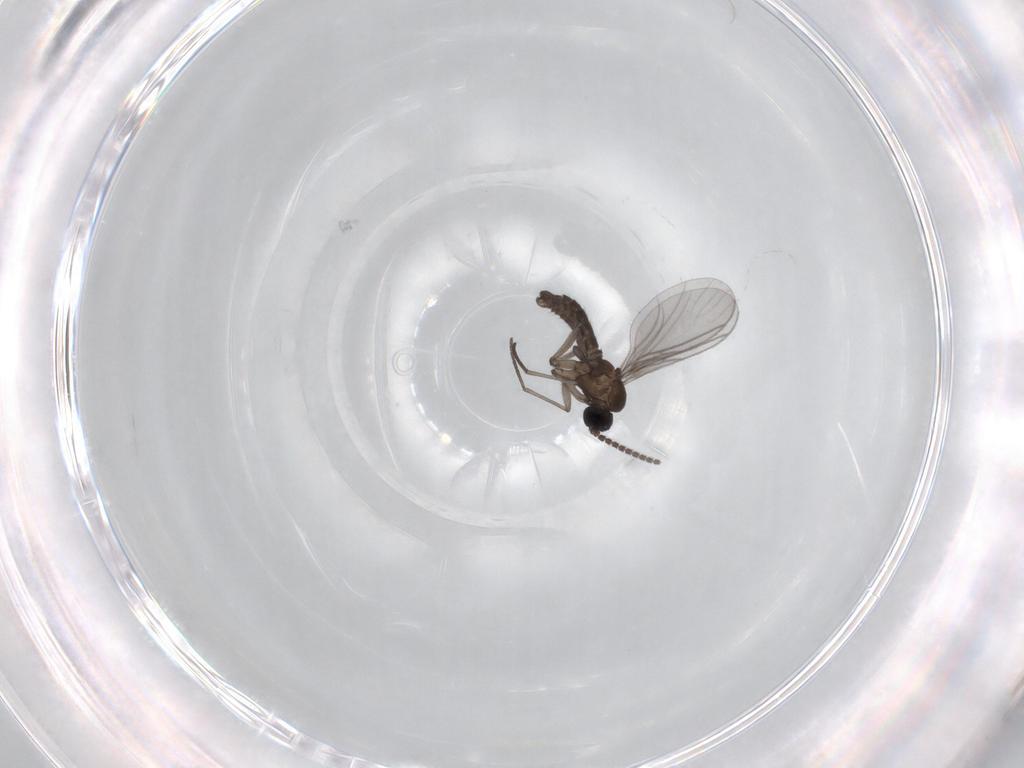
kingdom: Animalia
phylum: Arthropoda
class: Insecta
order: Diptera
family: Sciaridae
